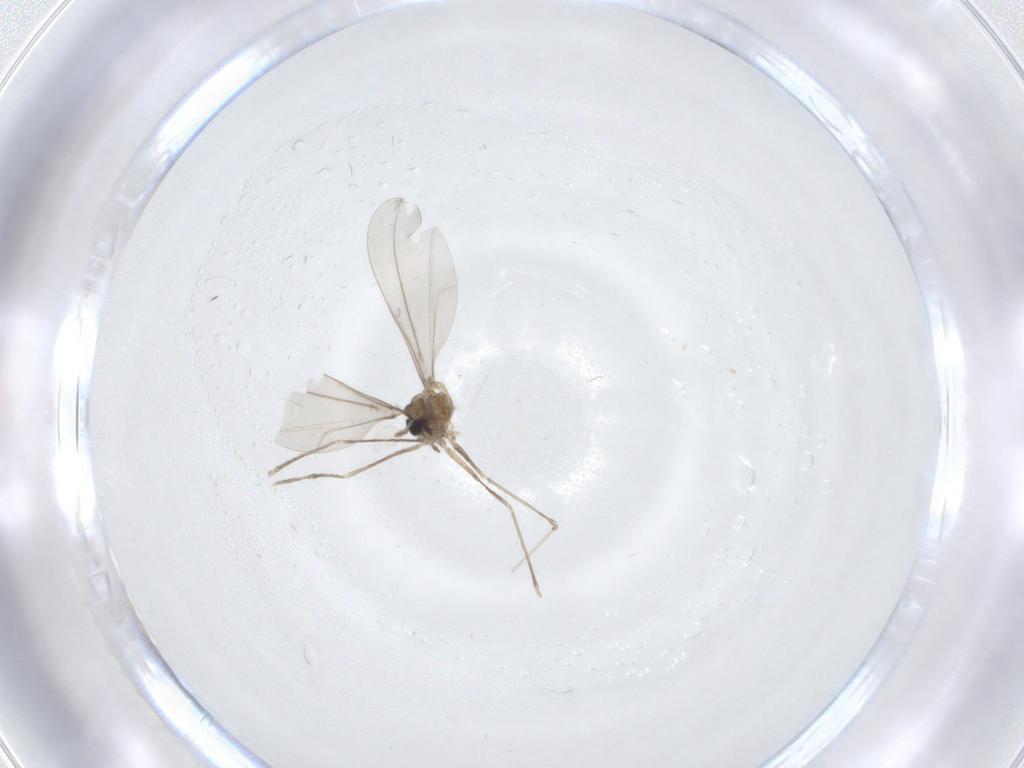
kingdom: Animalia
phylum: Arthropoda
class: Insecta
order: Diptera
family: Cecidomyiidae
